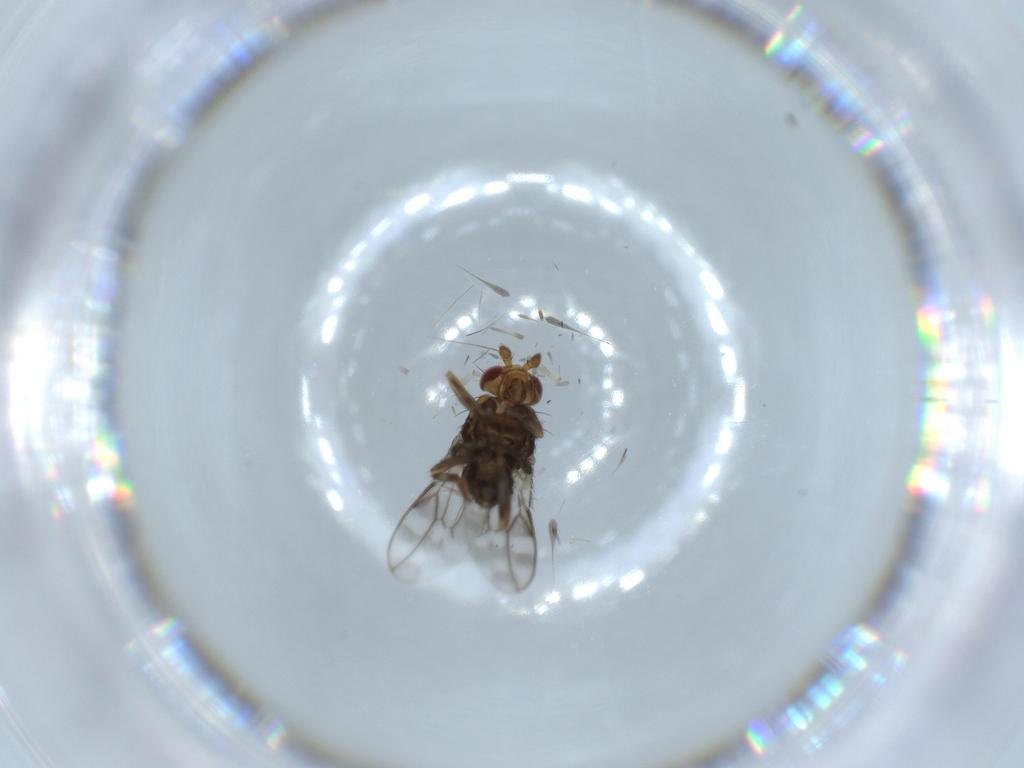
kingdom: Animalia
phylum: Arthropoda
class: Insecta
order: Diptera
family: Sphaeroceridae
